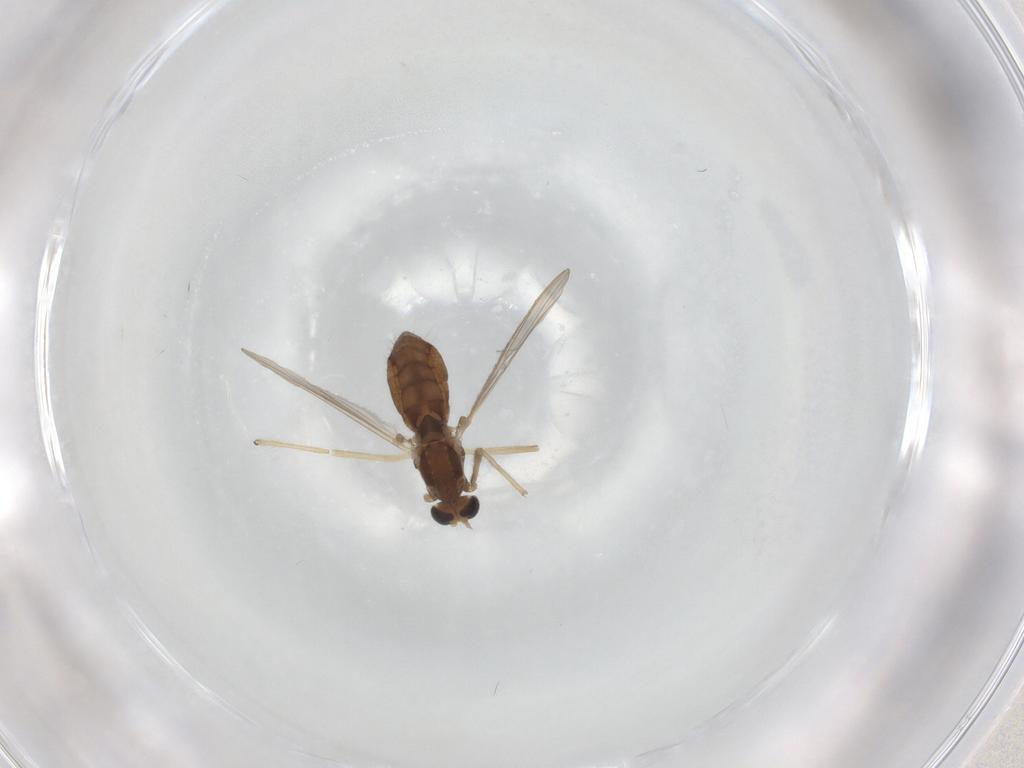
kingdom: Animalia
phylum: Arthropoda
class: Insecta
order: Diptera
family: Chironomidae
